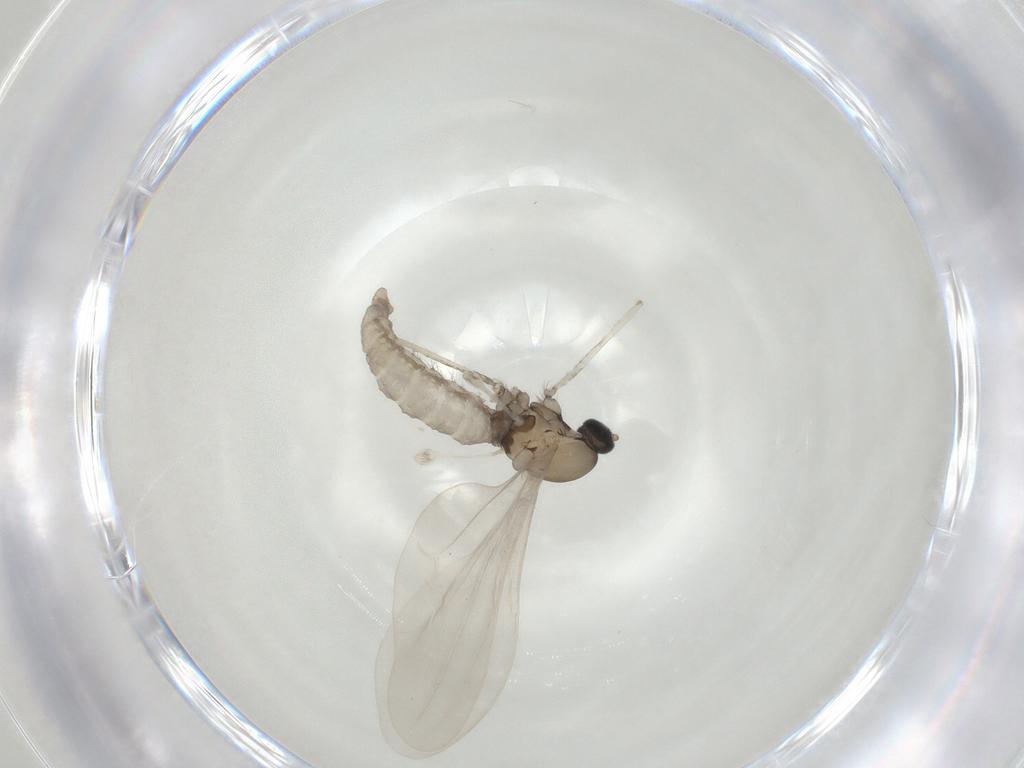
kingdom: Animalia
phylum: Arthropoda
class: Insecta
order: Diptera
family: Cecidomyiidae
